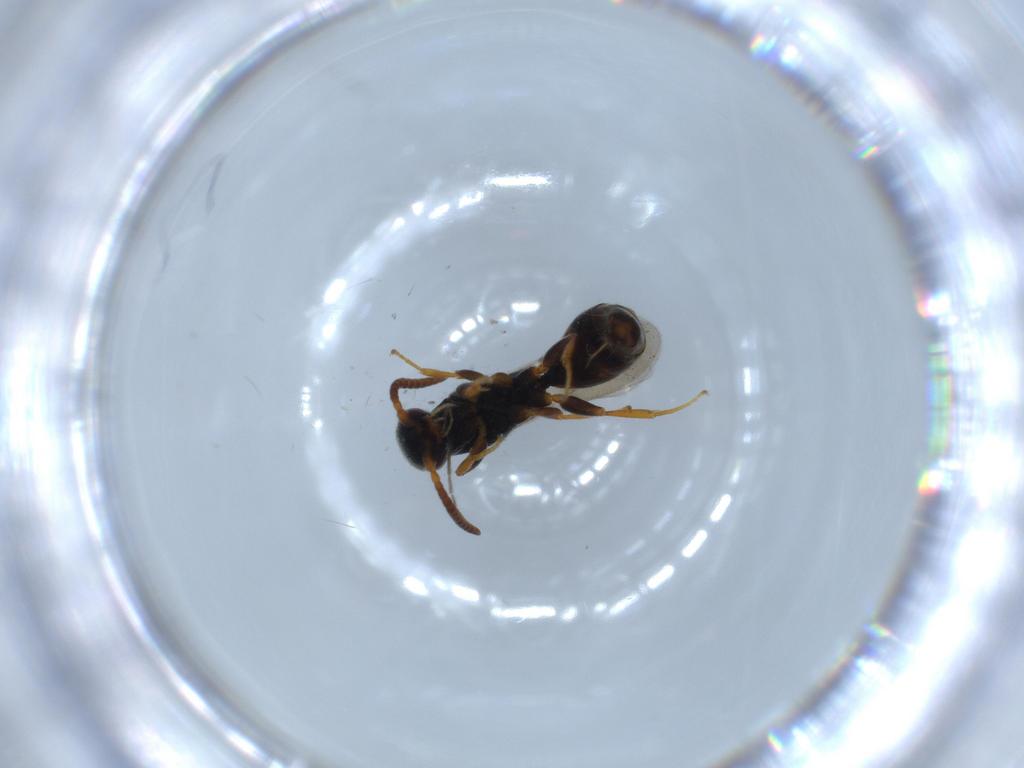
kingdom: Animalia
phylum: Arthropoda
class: Insecta
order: Hymenoptera
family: Bethylidae
